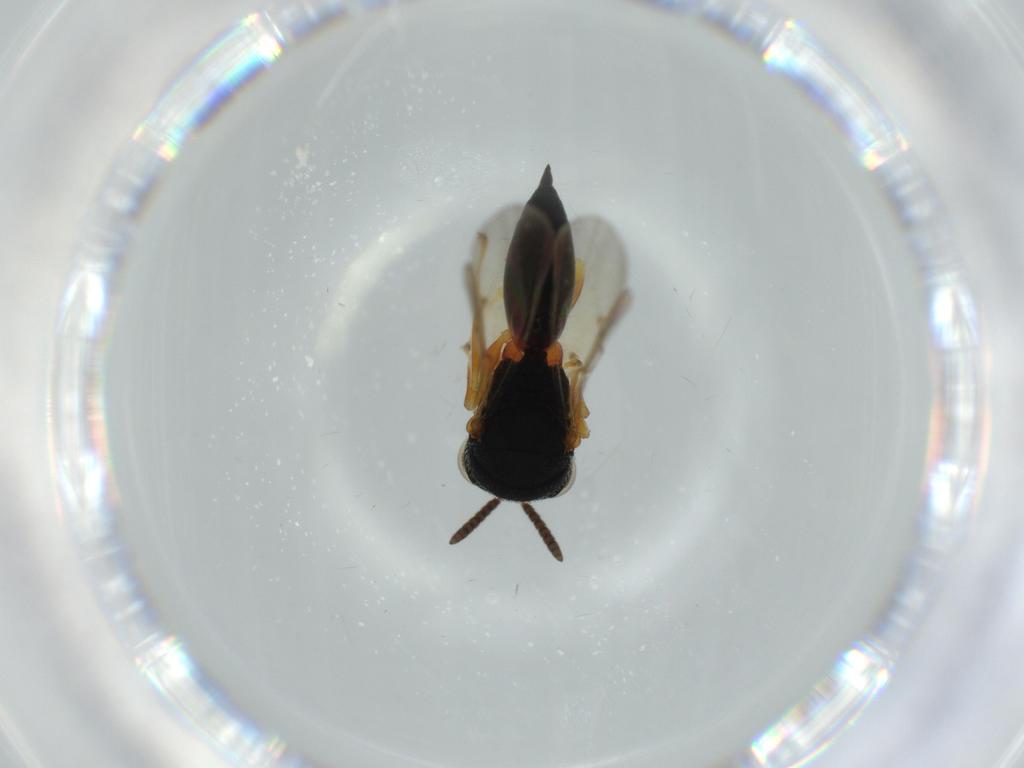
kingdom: Animalia
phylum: Arthropoda
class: Insecta
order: Hymenoptera
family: Eurytomidae
